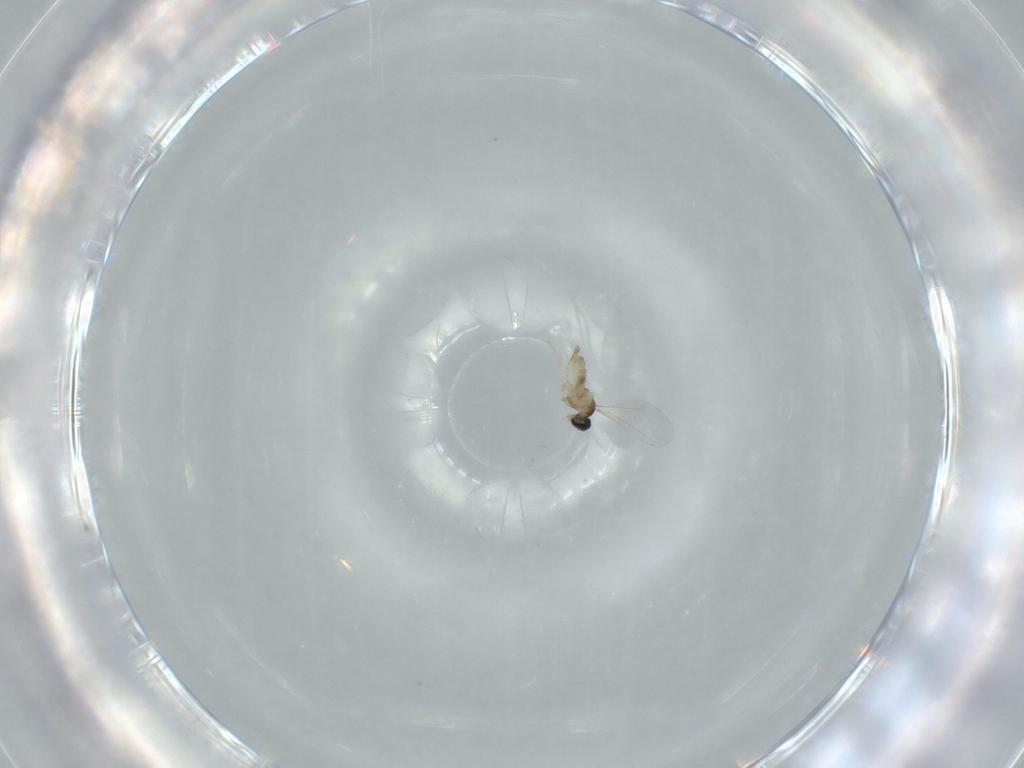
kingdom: Animalia
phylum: Arthropoda
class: Insecta
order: Diptera
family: Cecidomyiidae
